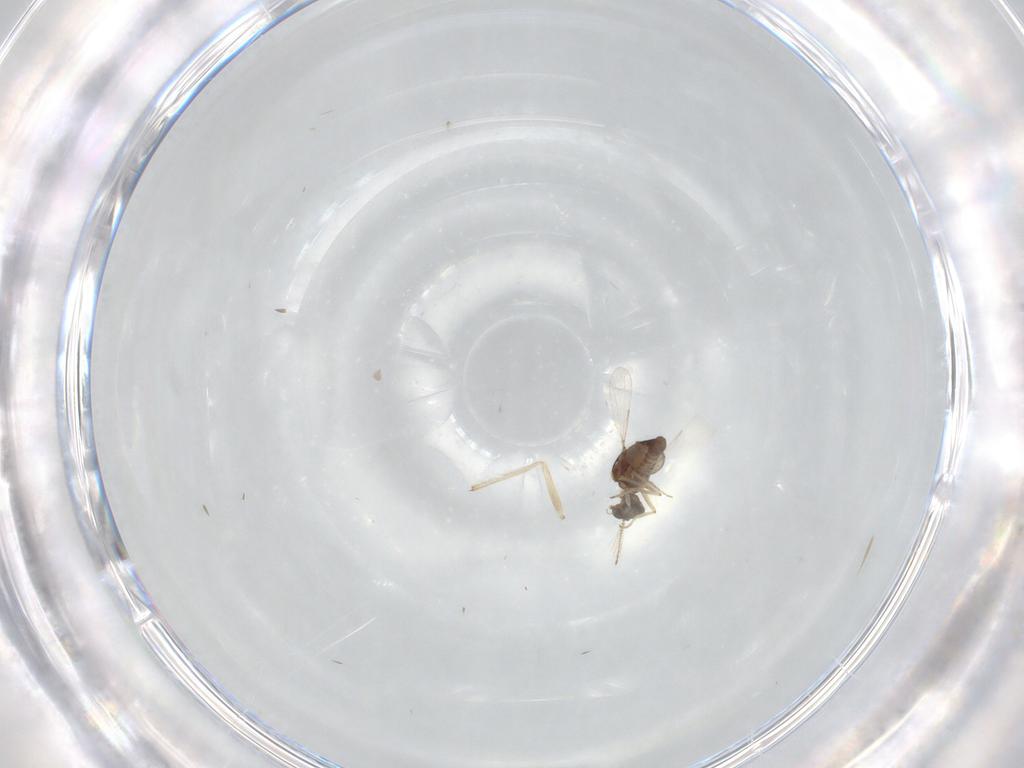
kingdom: Animalia
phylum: Arthropoda
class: Insecta
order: Diptera
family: Ceratopogonidae
